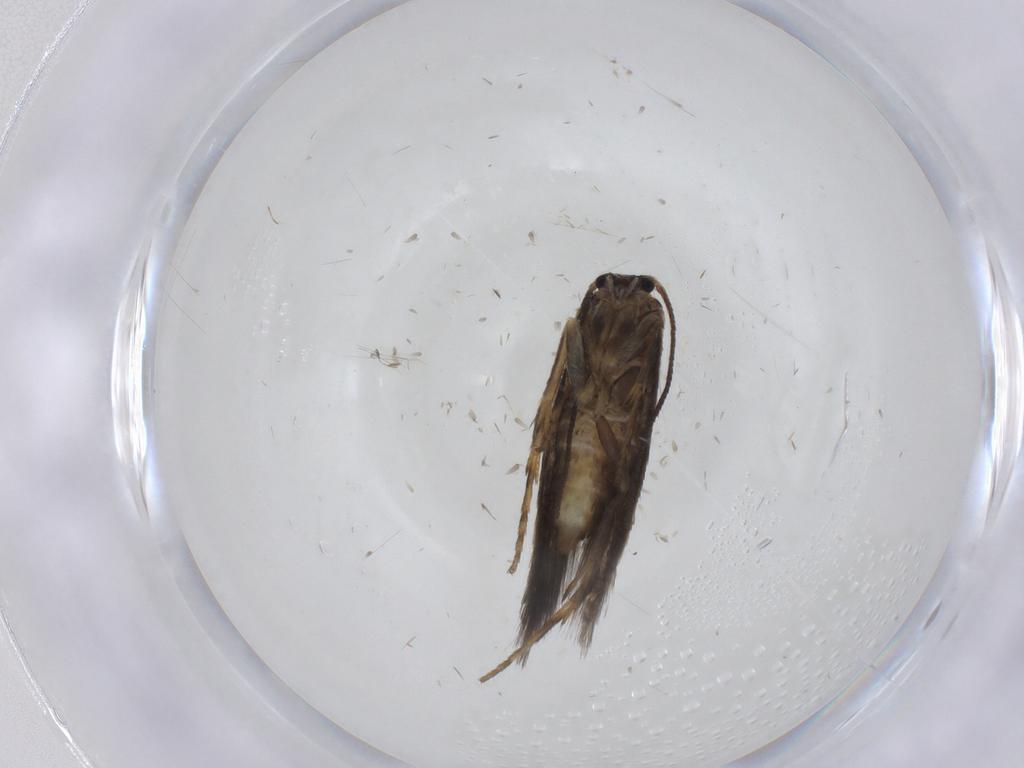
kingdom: Animalia
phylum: Arthropoda
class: Insecta
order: Lepidoptera
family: Nepticulidae
